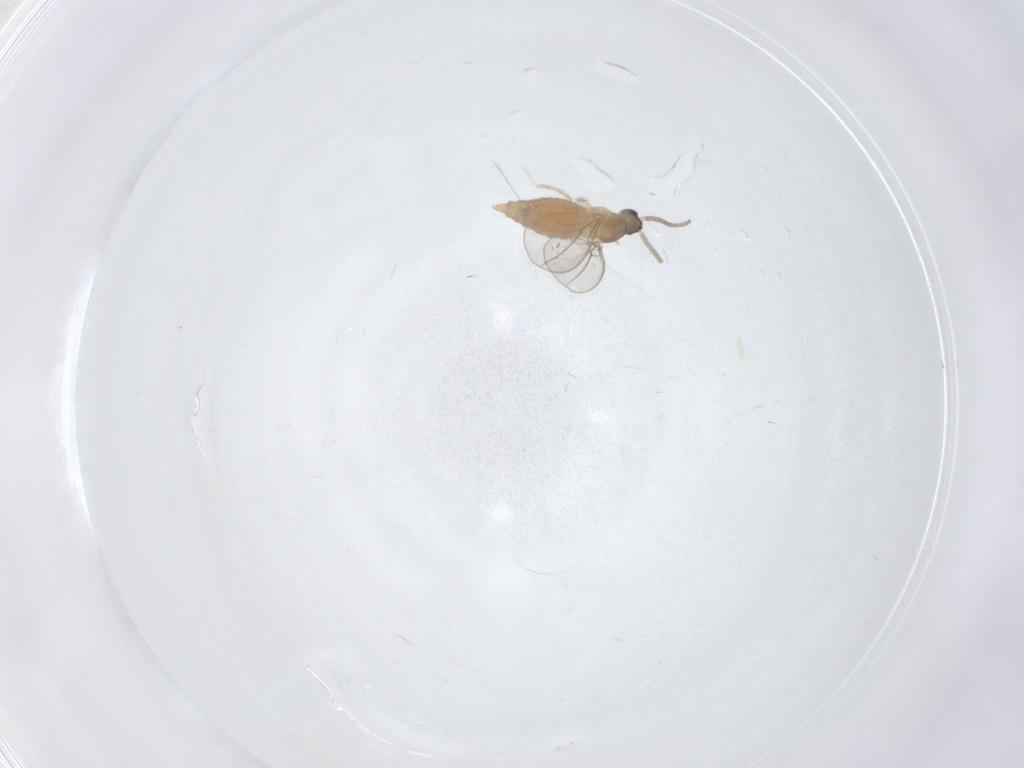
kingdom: Animalia
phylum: Arthropoda
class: Insecta
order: Diptera
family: Cecidomyiidae
